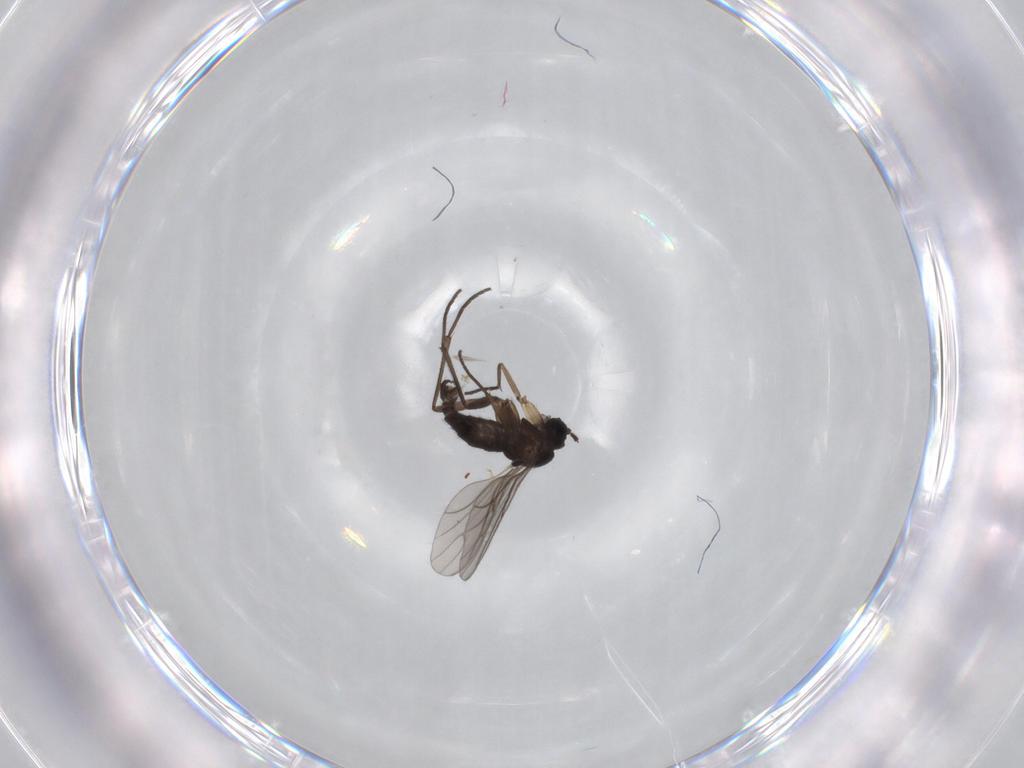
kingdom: Animalia
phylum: Arthropoda
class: Insecta
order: Diptera
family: Sciaridae
